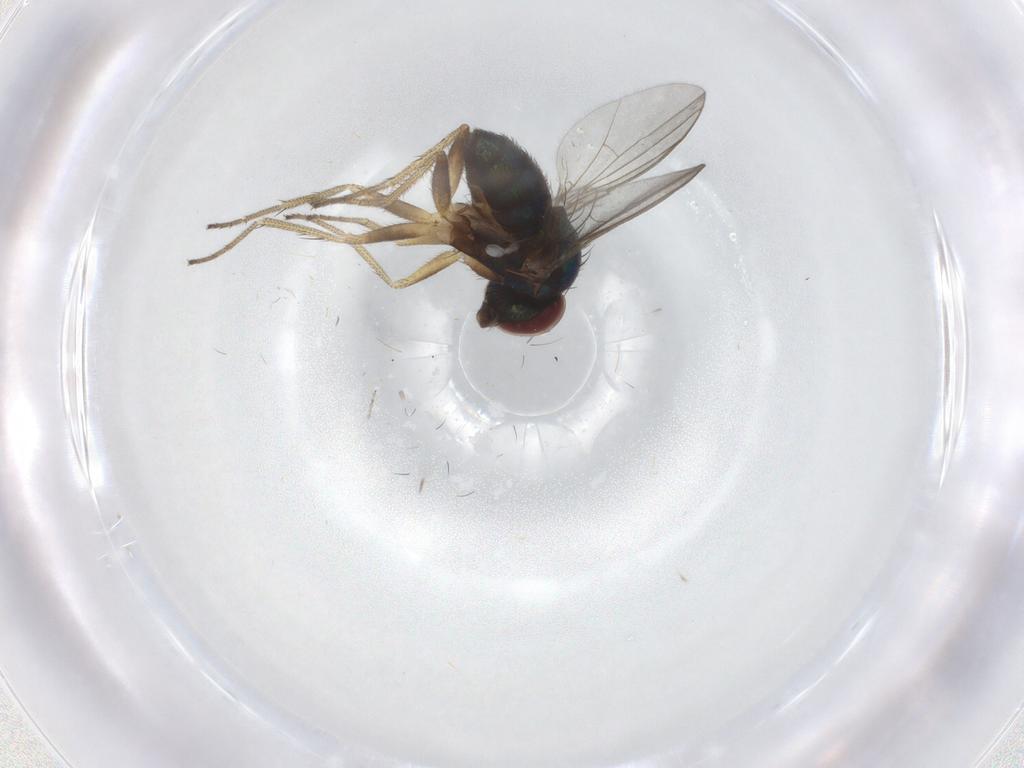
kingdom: Animalia
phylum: Arthropoda
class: Insecta
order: Diptera
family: Dolichopodidae
